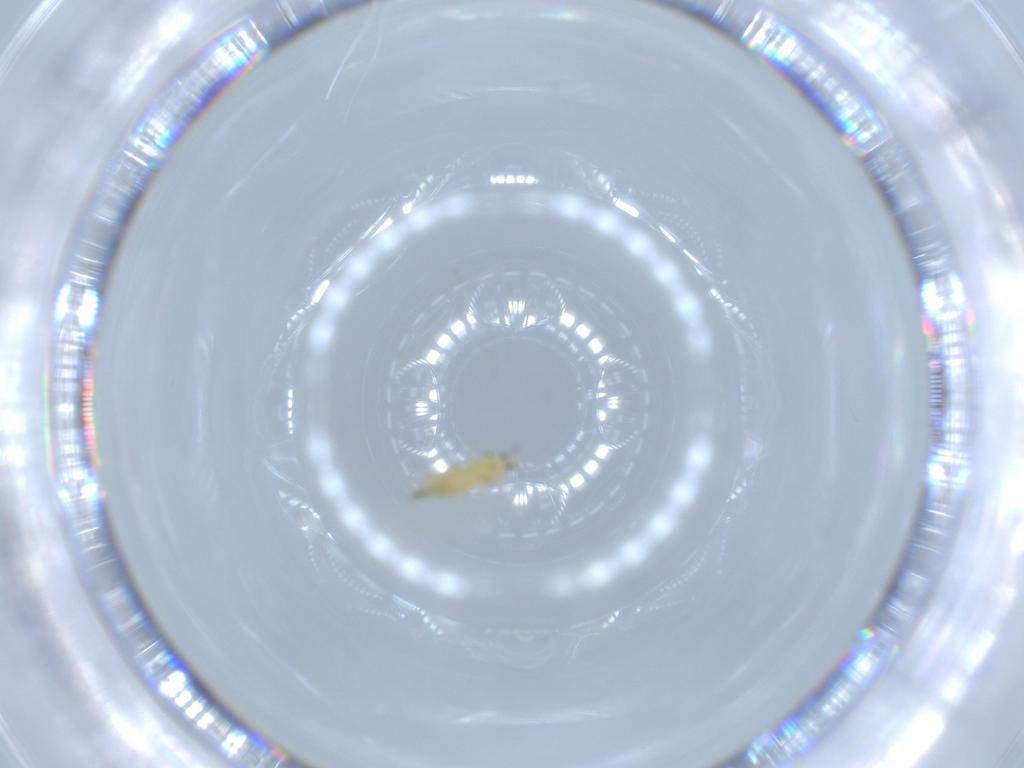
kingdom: Animalia
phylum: Arthropoda
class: Insecta
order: Thysanoptera
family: Thripidae
